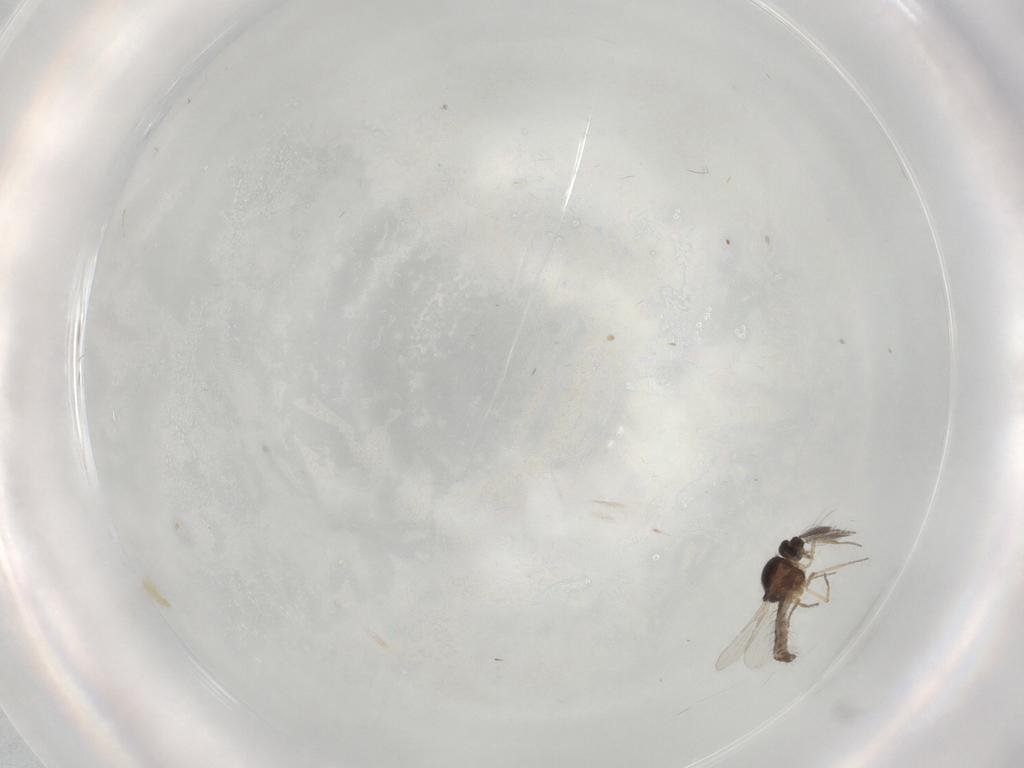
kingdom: Animalia
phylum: Arthropoda
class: Insecta
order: Diptera
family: Ceratopogonidae
